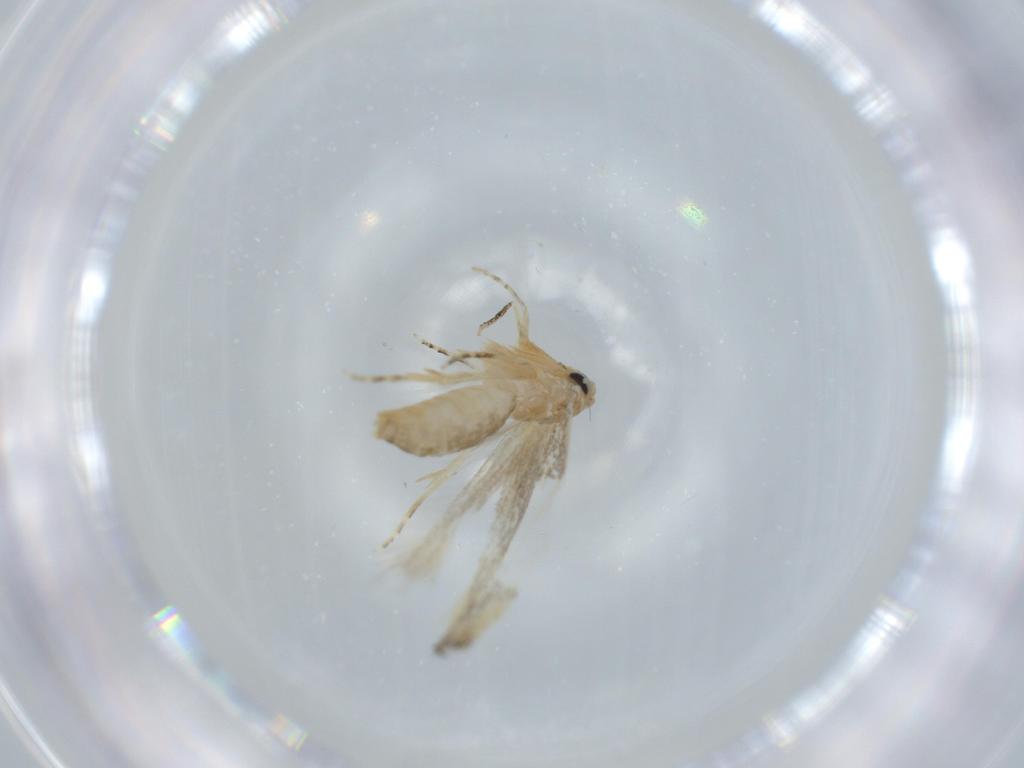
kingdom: Animalia
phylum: Arthropoda
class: Insecta
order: Lepidoptera
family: Bucculatricidae
